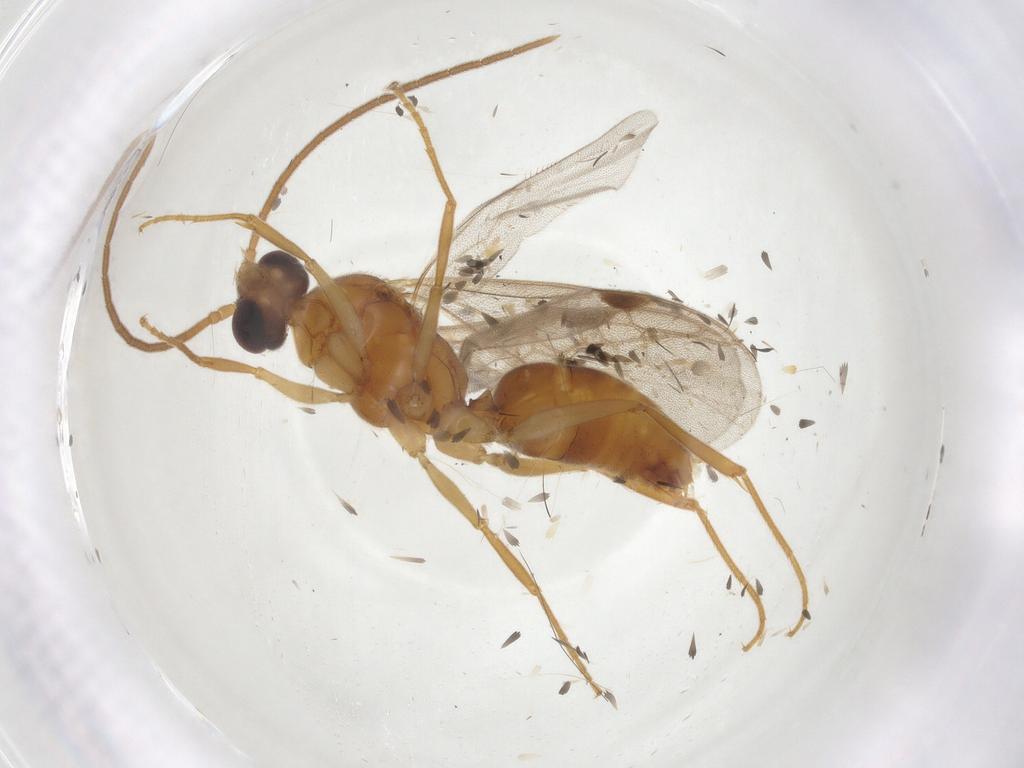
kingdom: Animalia
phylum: Arthropoda
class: Insecta
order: Hymenoptera
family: Formicidae
